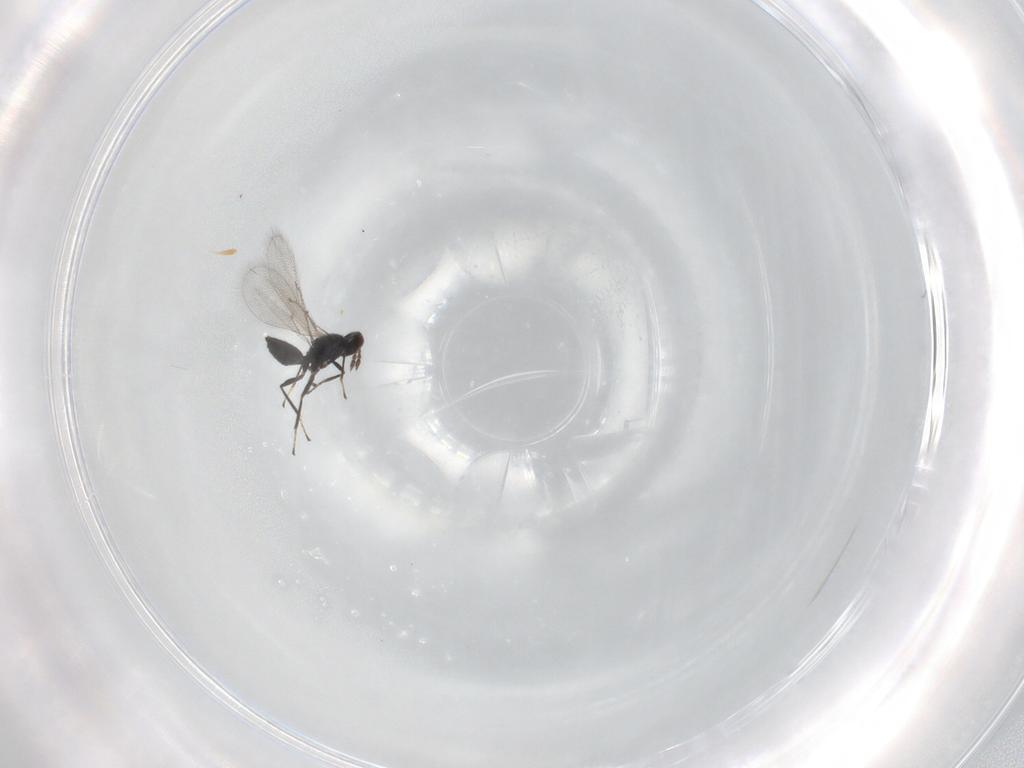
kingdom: Animalia
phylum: Arthropoda
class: Insecta
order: Hymenoptera
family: Eulophidae
